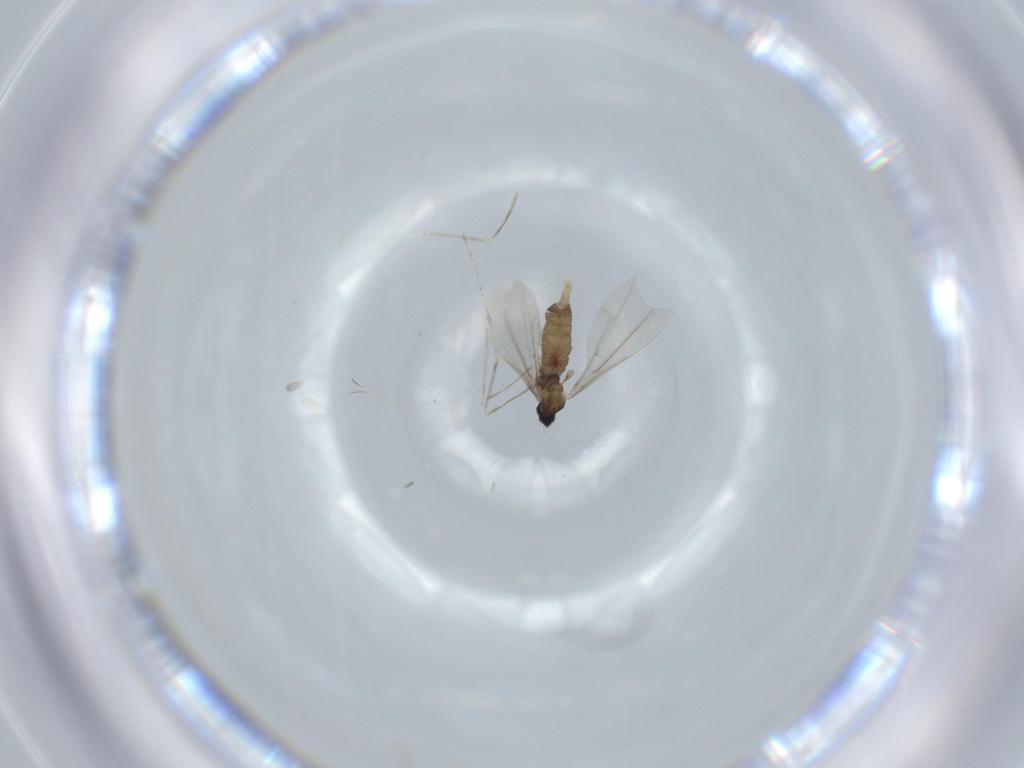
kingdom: Animalia
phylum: Arthropoda
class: Insecta
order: Diptera
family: Cecidomyiidae
